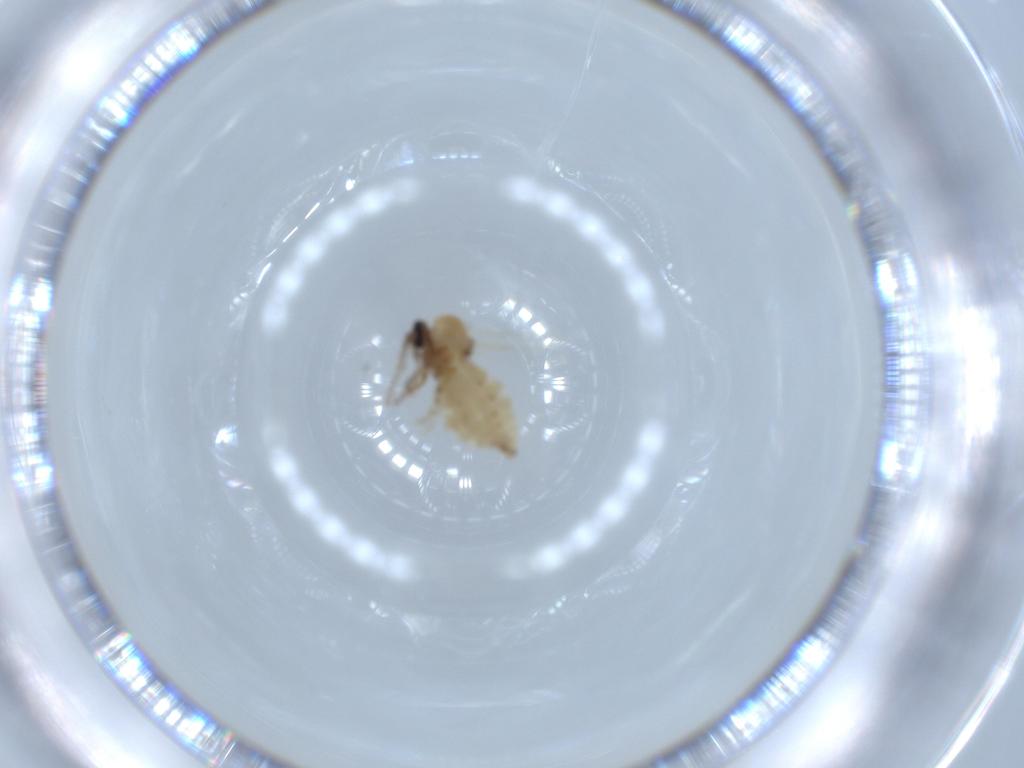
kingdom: Animalia
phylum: Arthropoda
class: Insecta
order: Diptera
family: Ceratopogonidae
